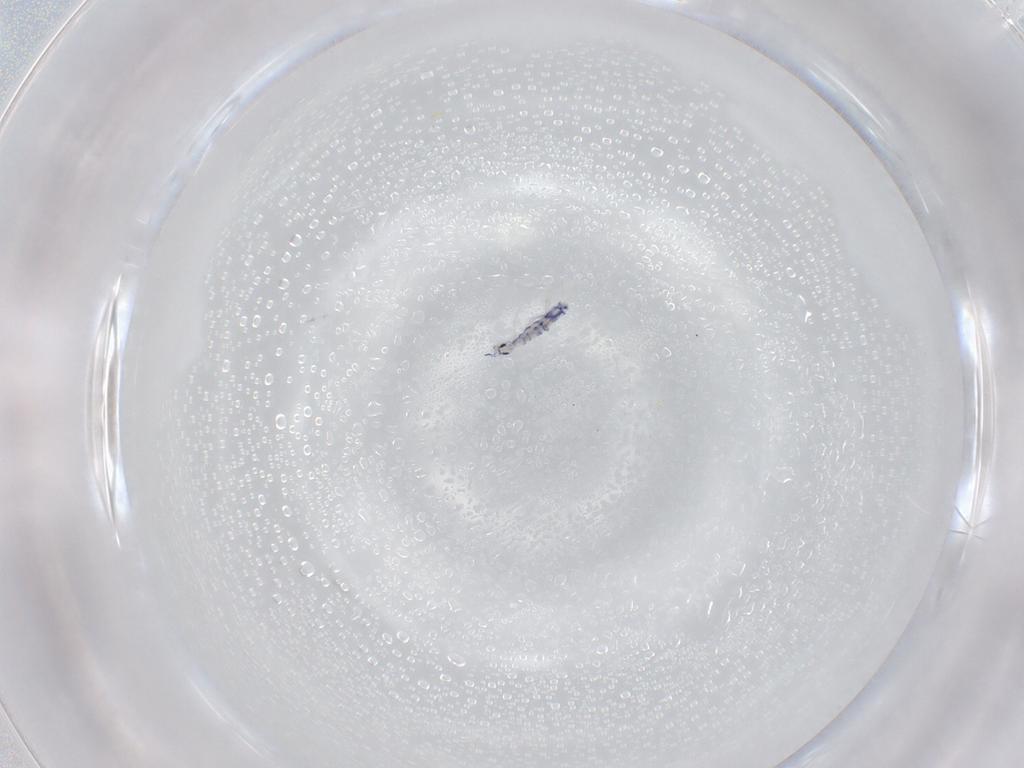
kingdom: Animalia
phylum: Arthropoda
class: Collembola
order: Entomobryomorpha
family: Entomobryidae
